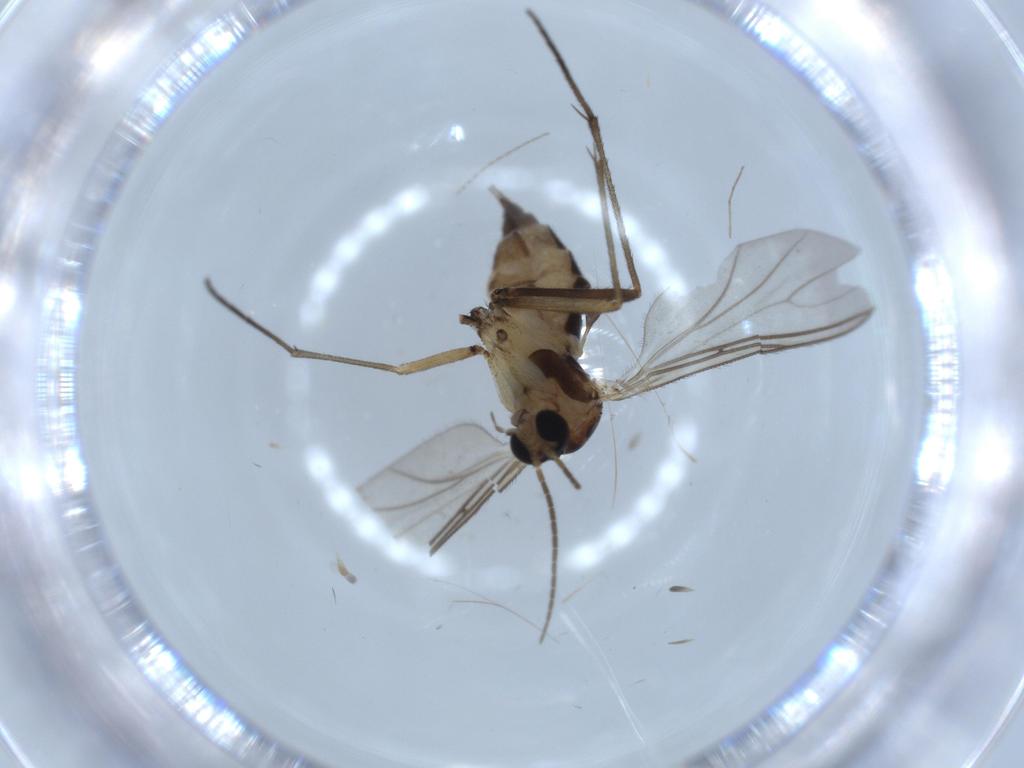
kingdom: Animalia
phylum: Arthropoda
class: Insecta
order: Diptera
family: Sciaridae
